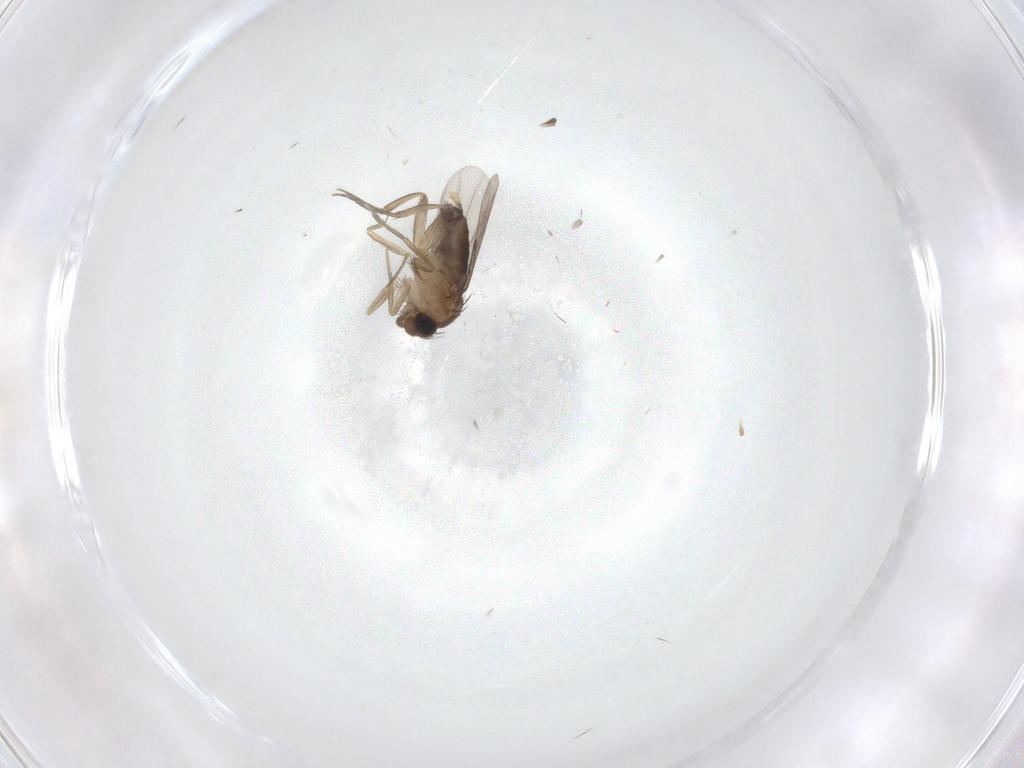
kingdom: Animalia
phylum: Arthropoda
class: Insecta
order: Diptera
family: Phoridae
